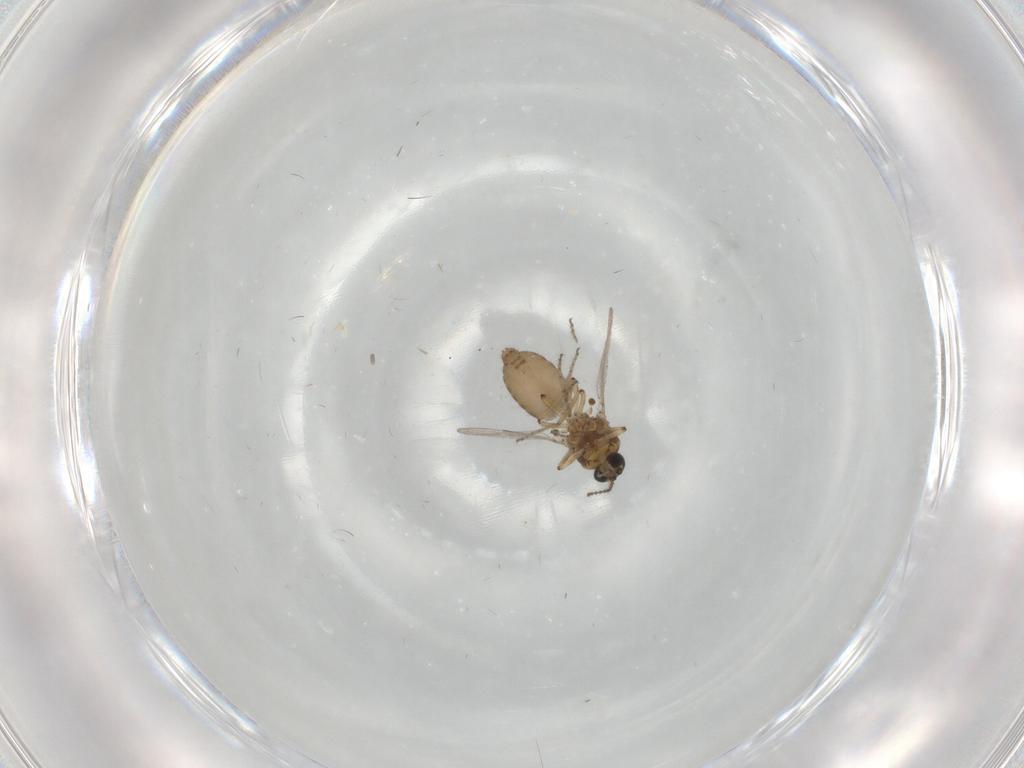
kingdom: Animalia
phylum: Arthropoda
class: Insecta
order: Diptera
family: Ceratopogonidae
